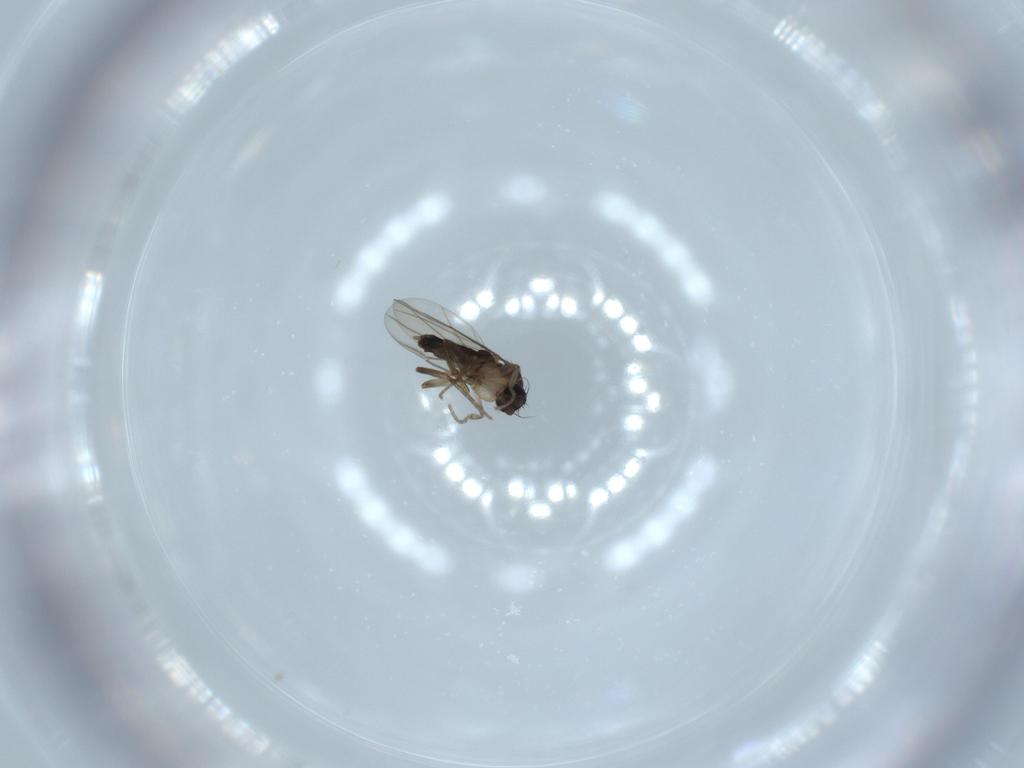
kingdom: Animalia
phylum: Arthropoda
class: Insecta
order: Diptera
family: Phoridae
